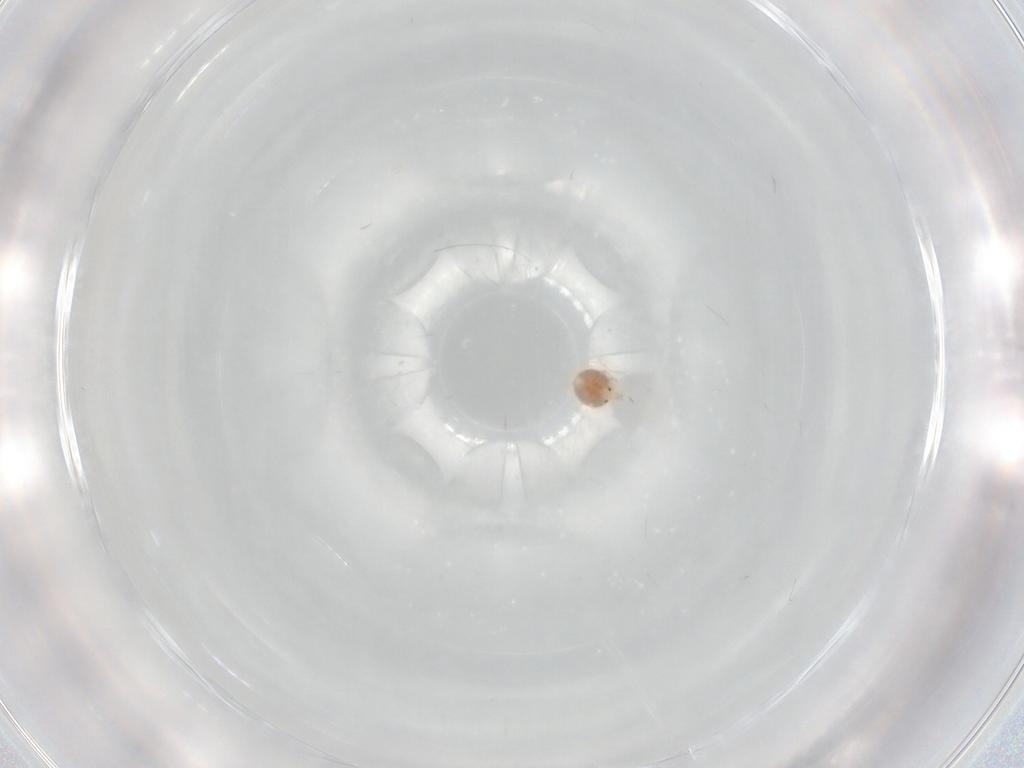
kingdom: Animalia
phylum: Arthropoda
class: Arachnida
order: Trombidiformes
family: Hygrobatidae
